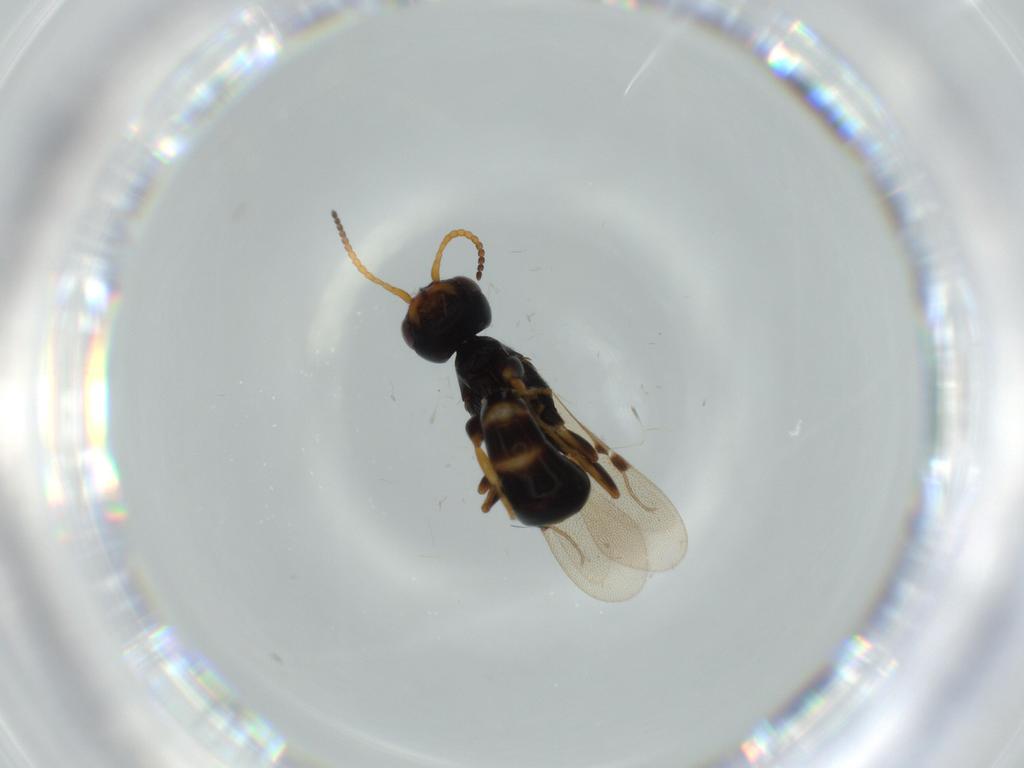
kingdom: Animalia
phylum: Arthropoda
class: Insecta
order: Hymenoptera
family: Bethylidae
